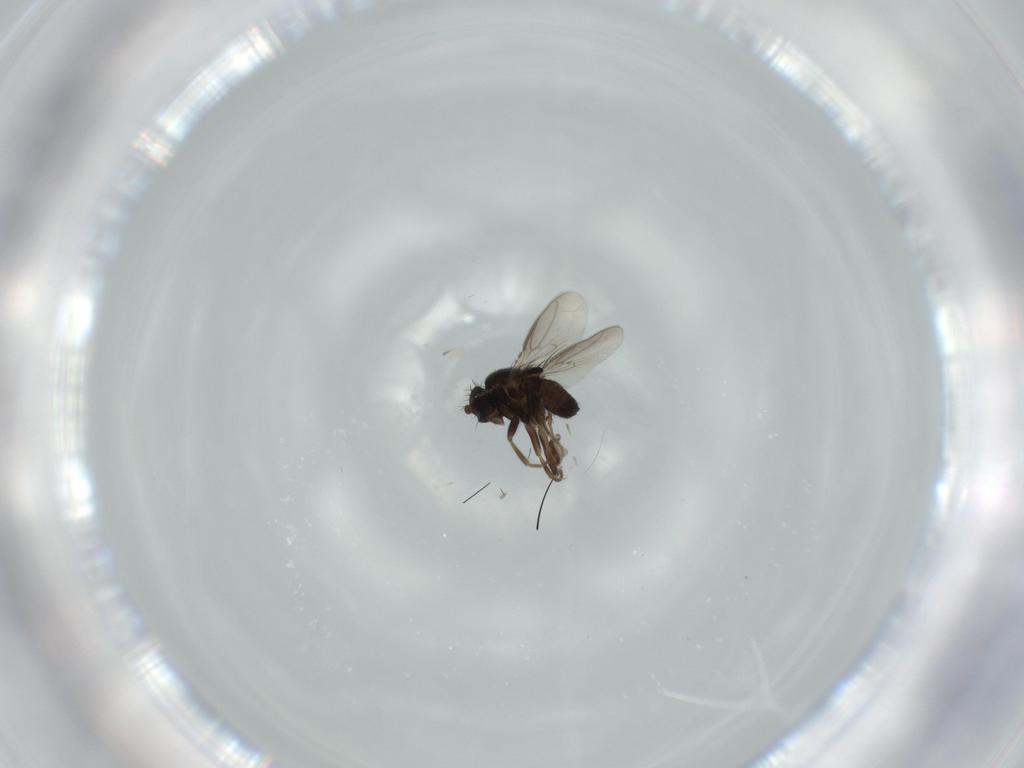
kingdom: Animalia
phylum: Arthropoda
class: Insecta
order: Diptera
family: Sphaeroceridae
